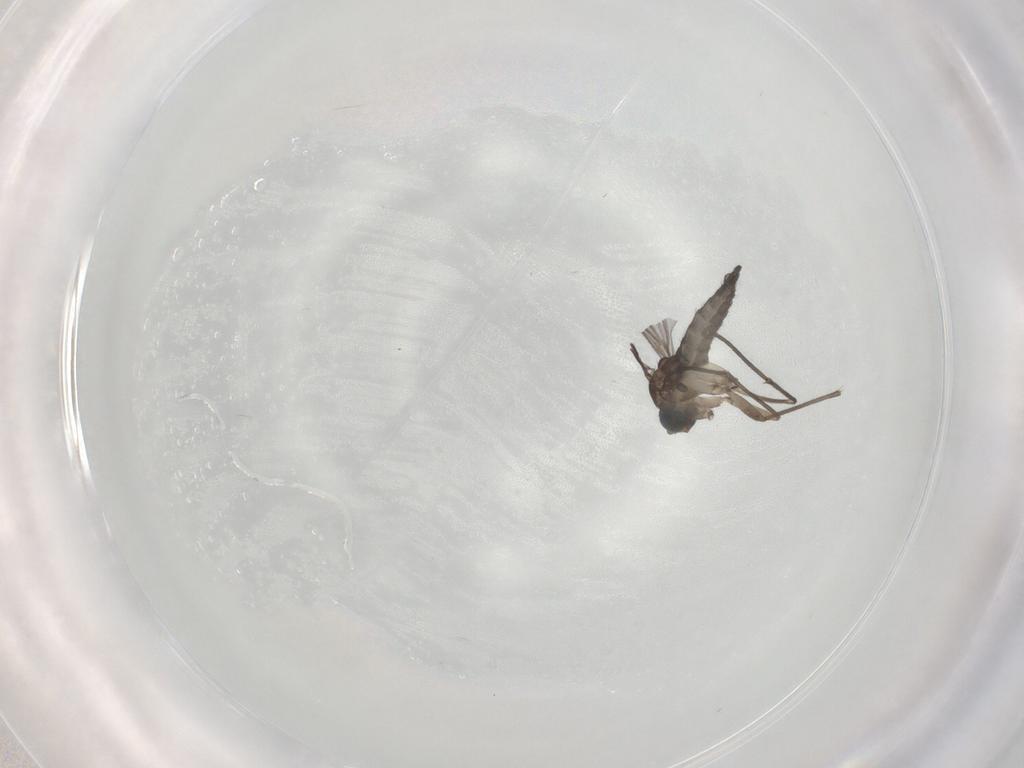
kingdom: Animalia
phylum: Arthropoda
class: Insecta
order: Diptera
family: Sciaridae
